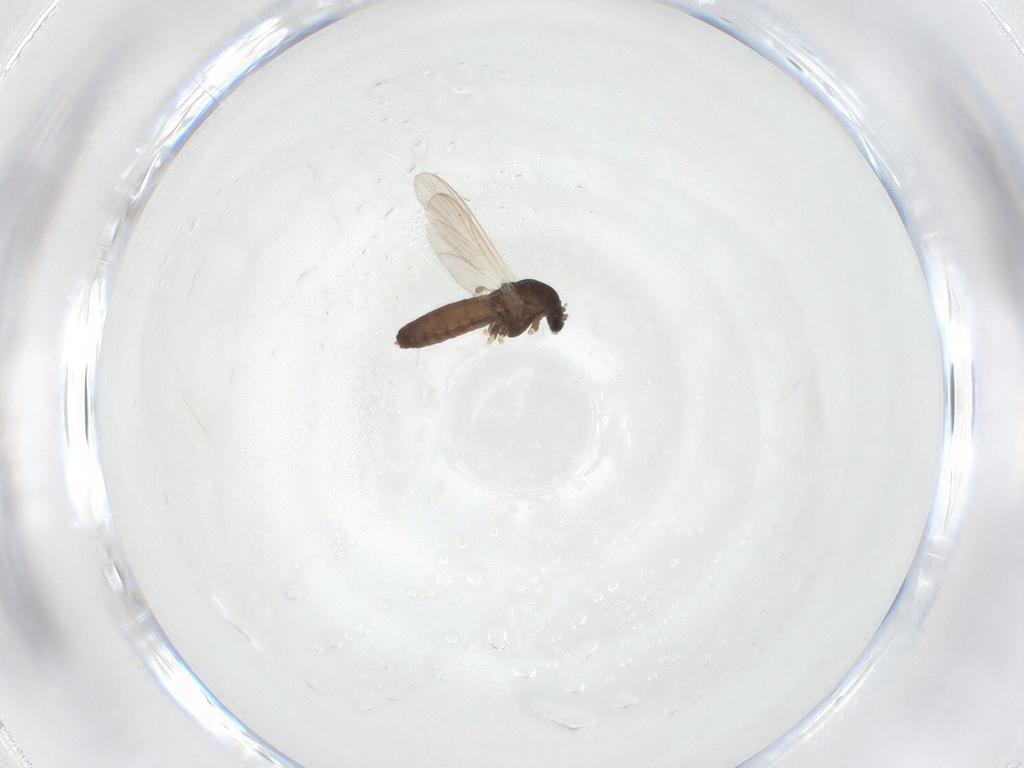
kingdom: Animalia
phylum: Arthropoda
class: Insecta
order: Diptera
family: Chironomidae
